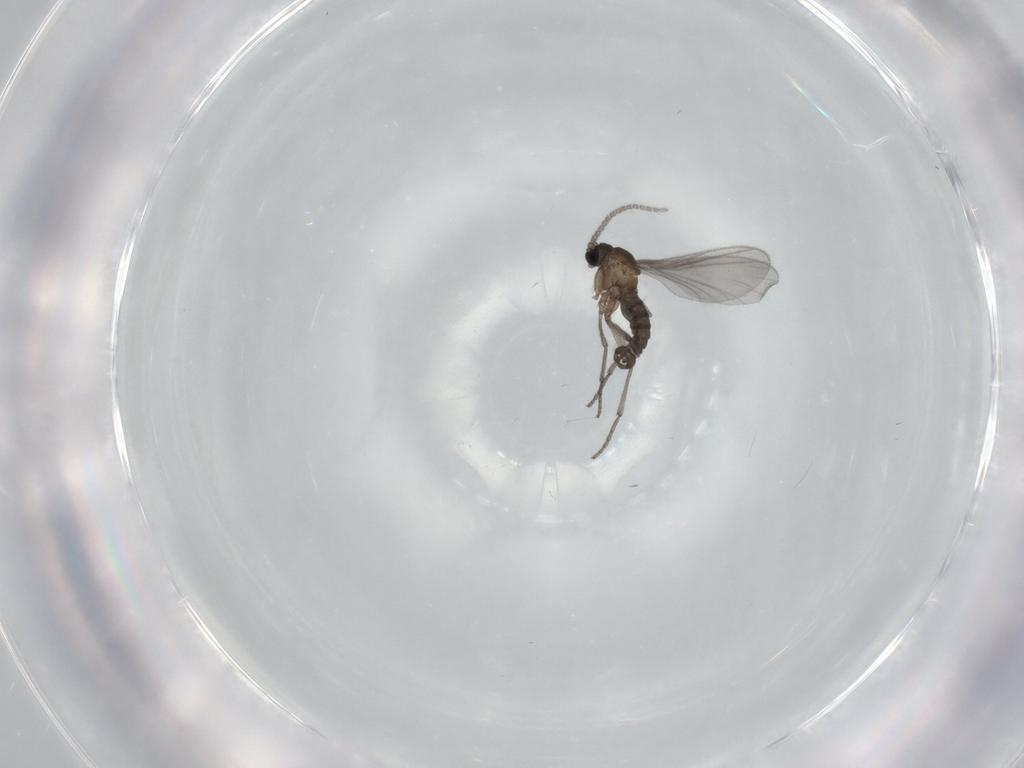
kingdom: Animalia
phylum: Arthropoda
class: Insecta
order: Diptera
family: Sciaridae
